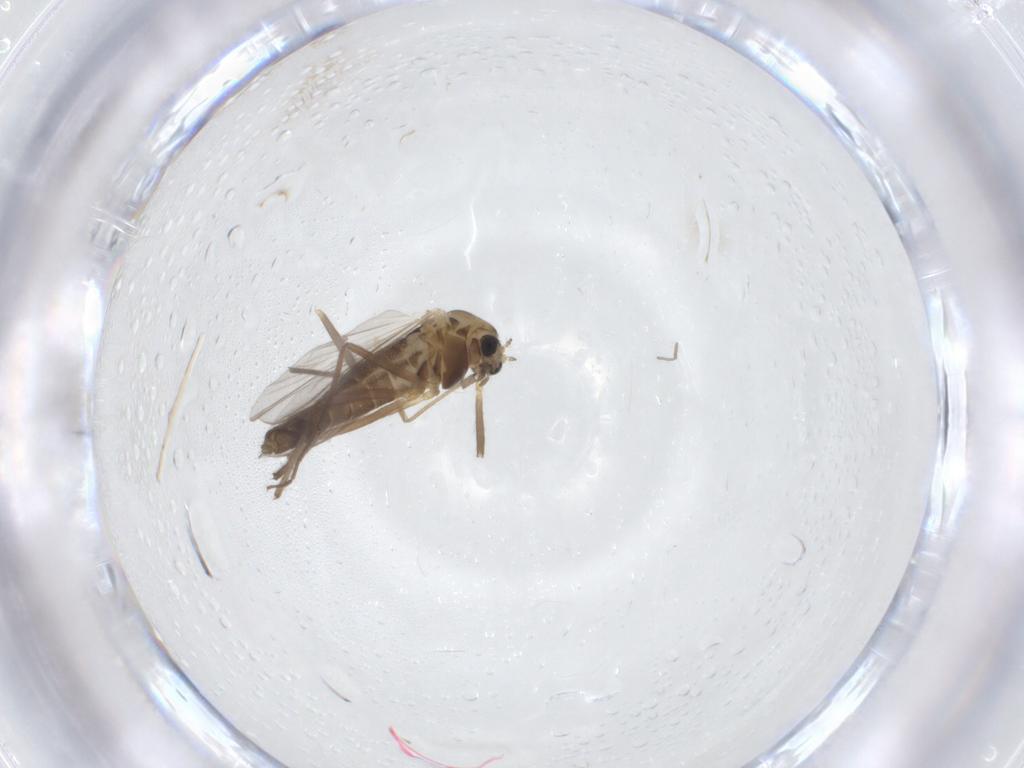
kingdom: Animalia
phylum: Arthropoda
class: Insecta
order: Diptera
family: Chironomidae
